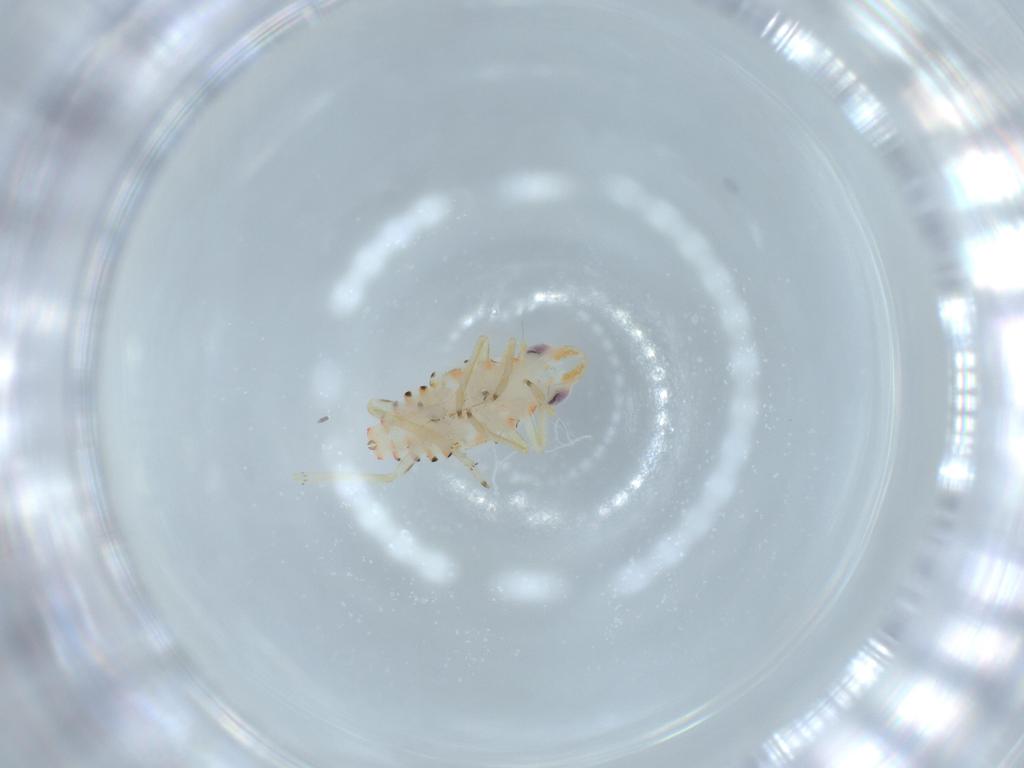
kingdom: Animalia
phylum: Arthropoda
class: Insecta
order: Hemiptera
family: Tropiduchidae
